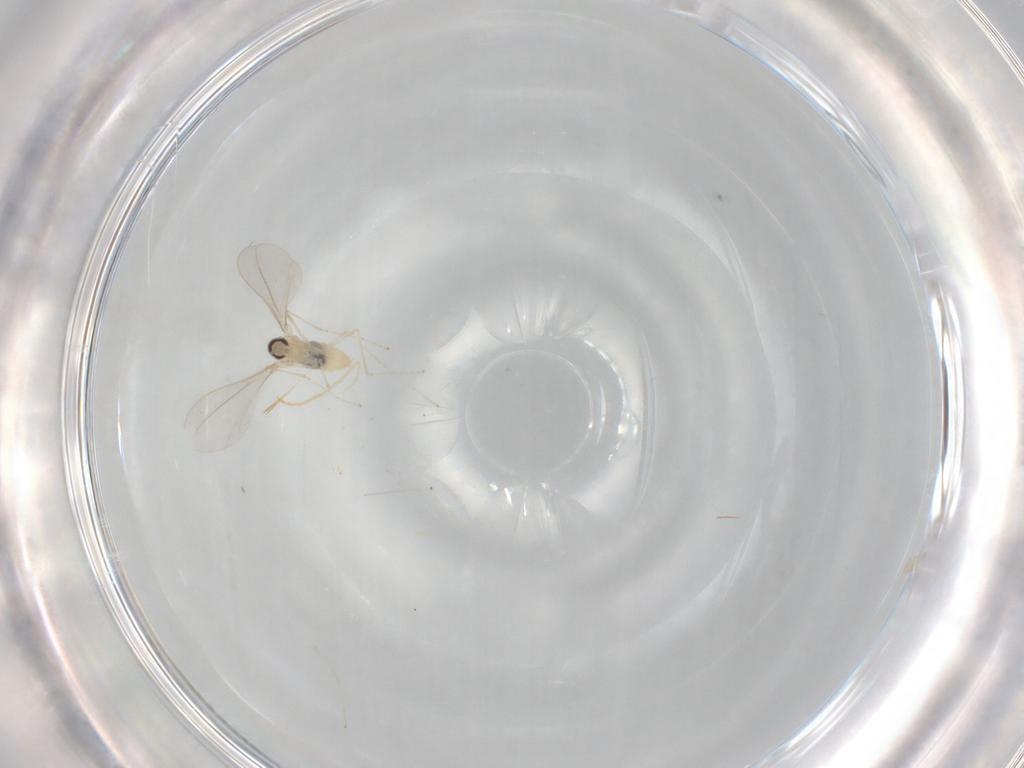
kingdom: Animalia
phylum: Arthropoda
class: Insecta
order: Diptera
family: Cecidomyiidae
